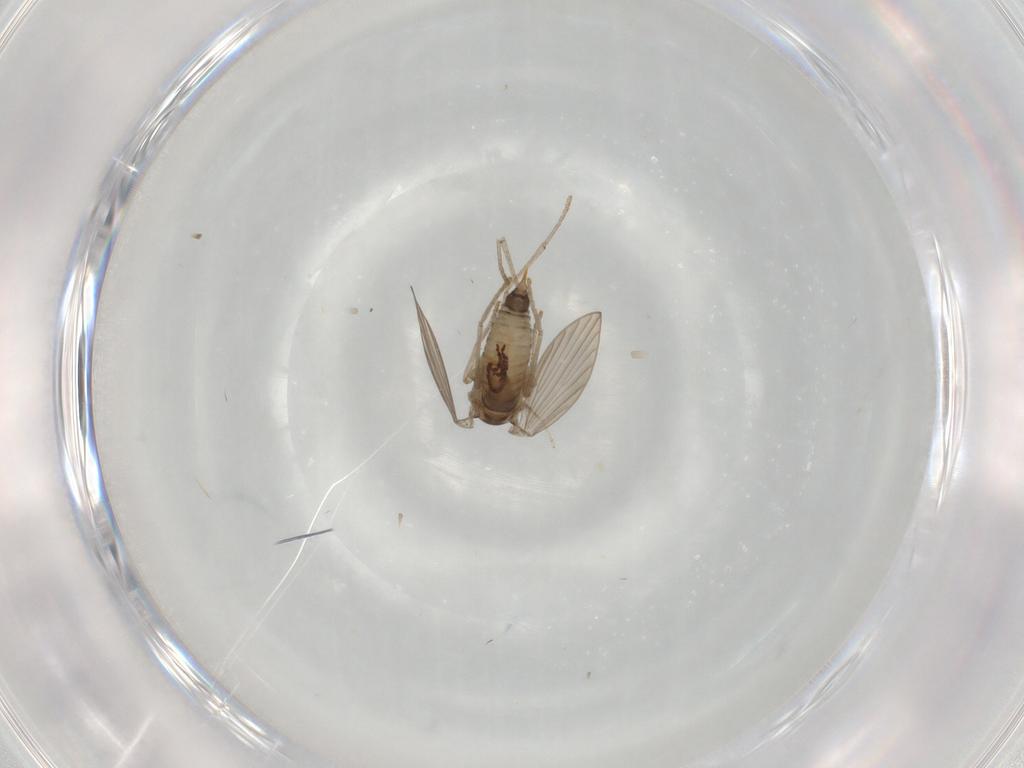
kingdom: Animalia
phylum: Arthropoda
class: Insecta
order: Diptera
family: Psychodidae
